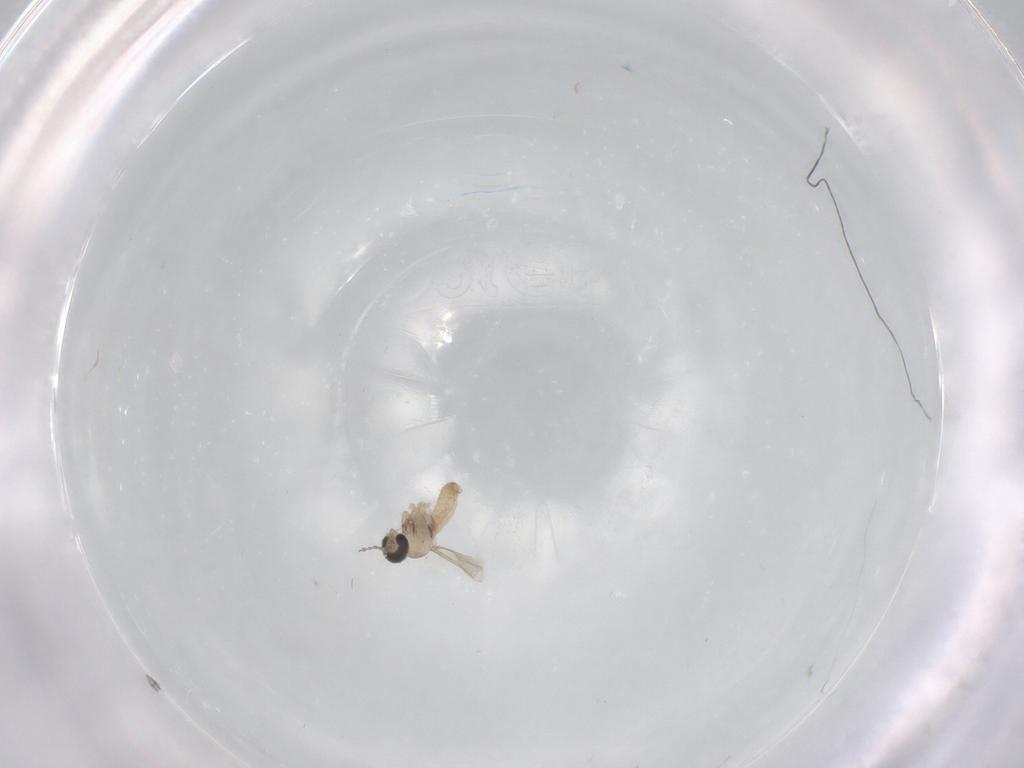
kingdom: Animalia
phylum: Arthropoda
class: Insecta
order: Diptera
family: Cecidomyiidae
